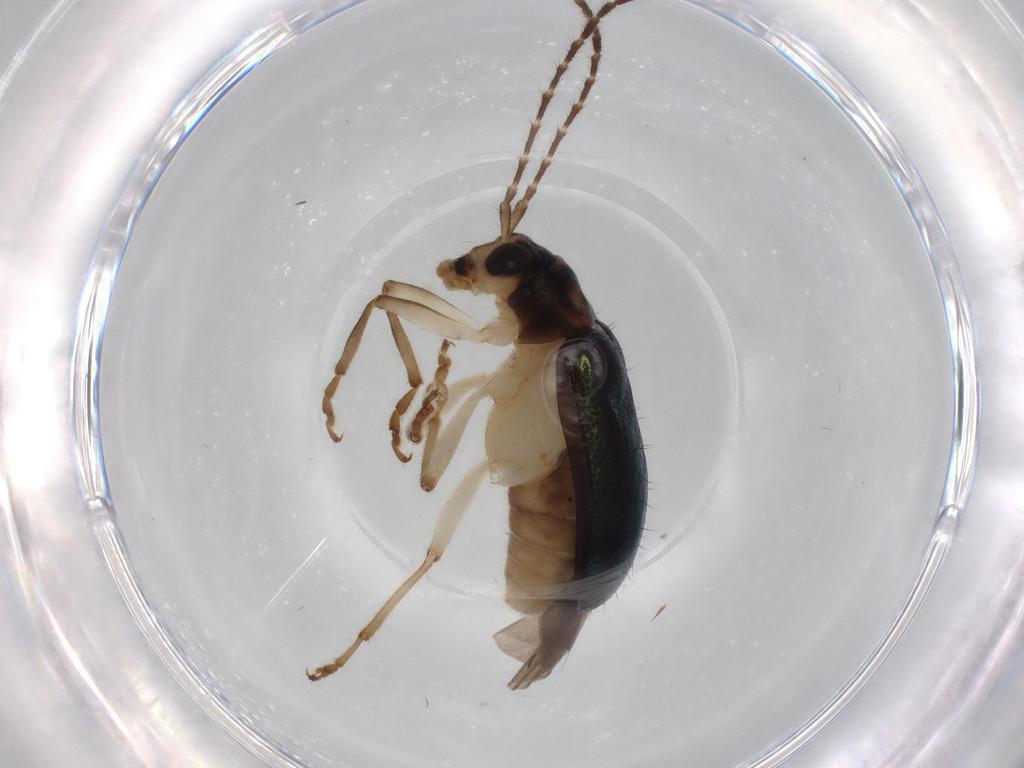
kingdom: Animalia
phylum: Arthropoda
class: Insecta
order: Coleoptera
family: Chrysomelidae
